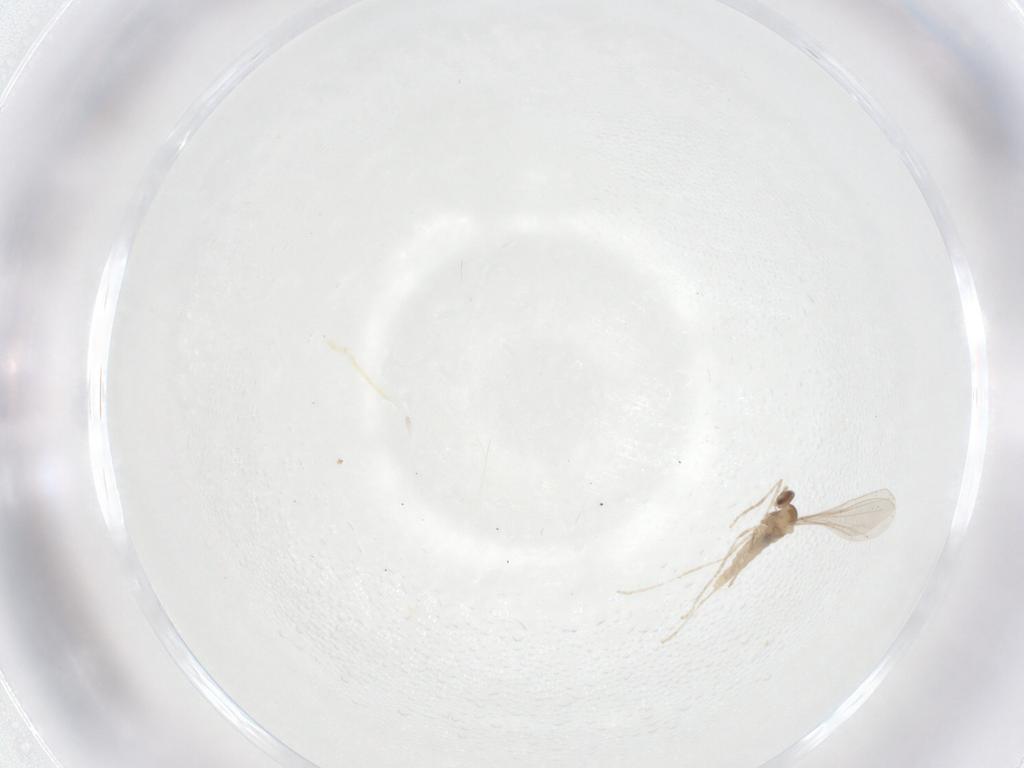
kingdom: Animalia
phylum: Arthropoda
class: Insecta
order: Diptera
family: Cecidomyiidae
